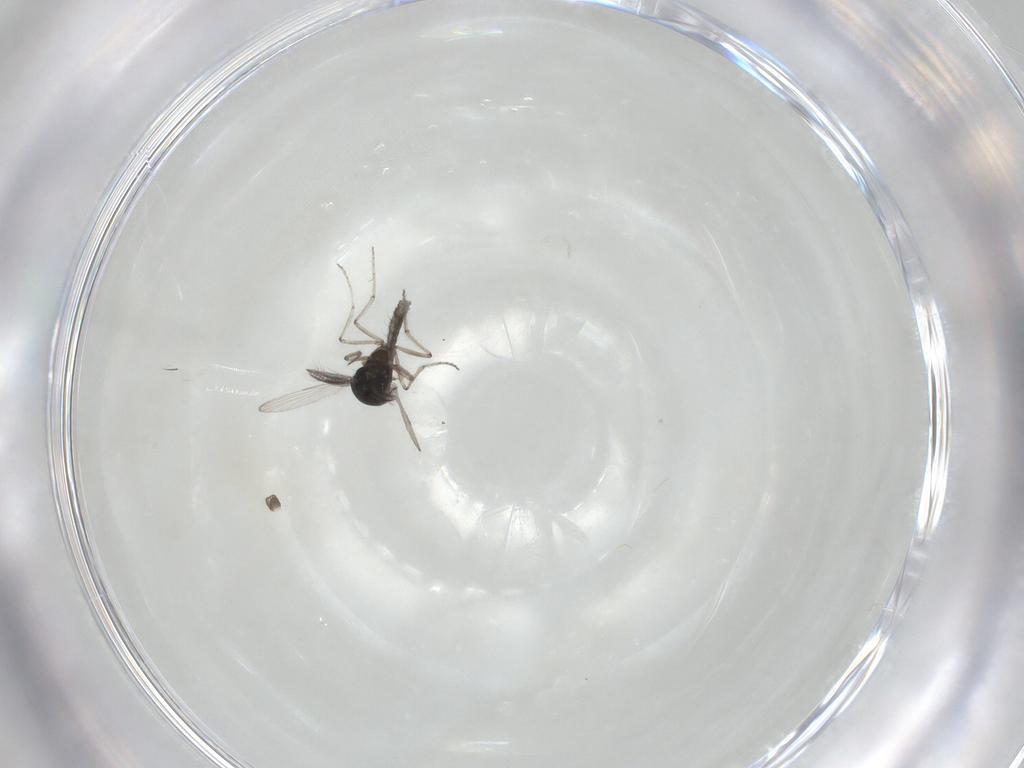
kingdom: Animalia
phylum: Arthropoda
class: Insecta
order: Diptera
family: Ceratopogonidae
